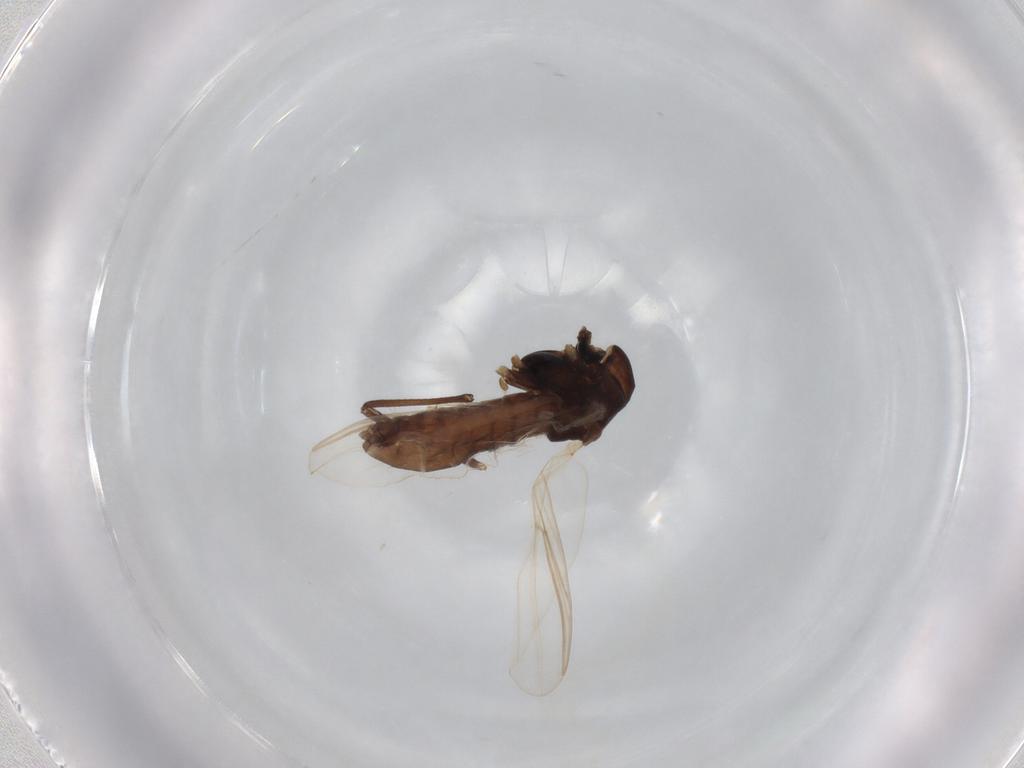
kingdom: Animalia
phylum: Arthropoda
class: Insecta
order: Diptera
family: Chironomidae
